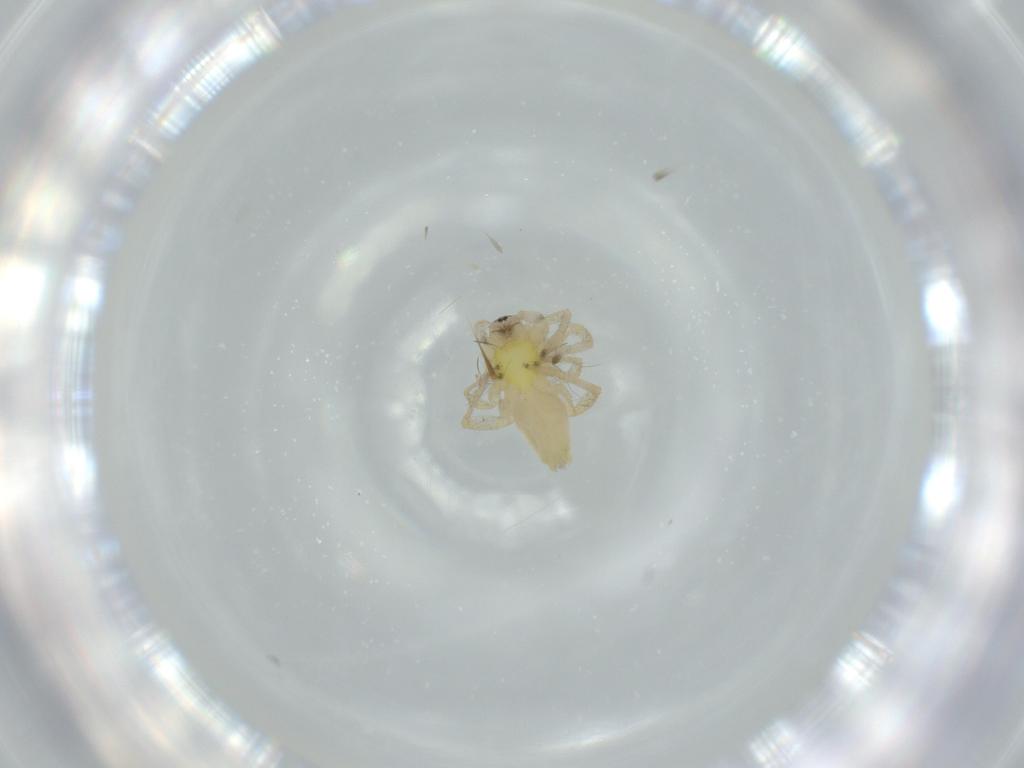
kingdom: Animalia
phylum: Arthropoda
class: Arachnida
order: Araneae
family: Anyphaenidae
